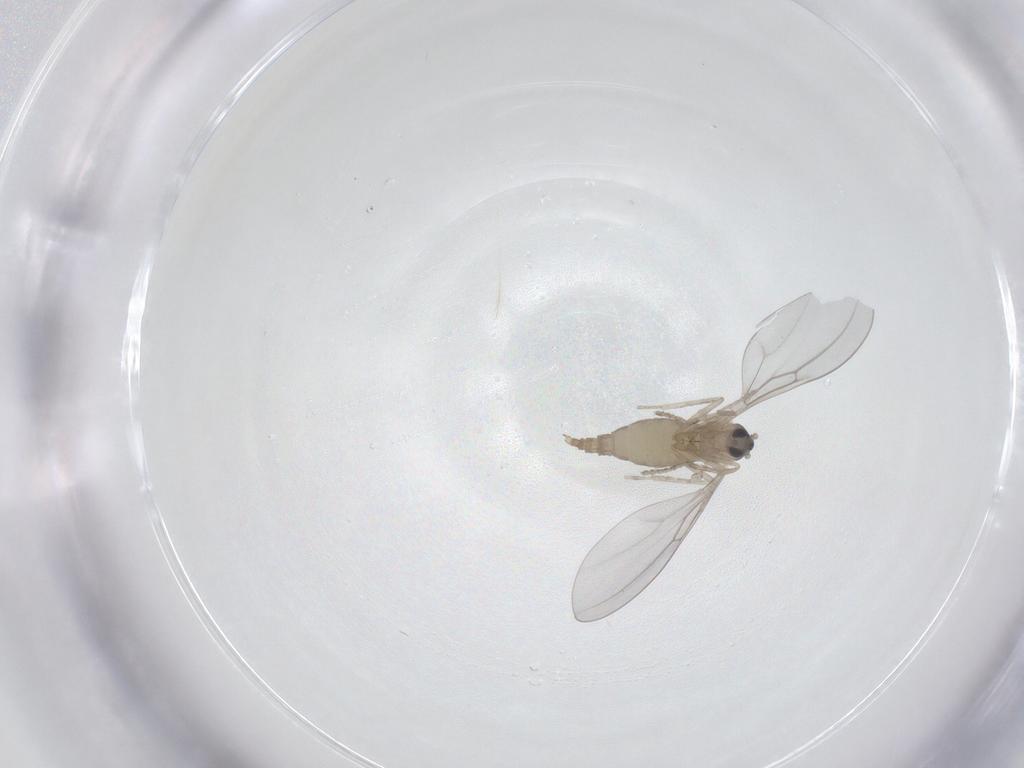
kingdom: Animalia
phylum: Arthropoda
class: Insecta
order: Diptera
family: Cecidomyiidae
